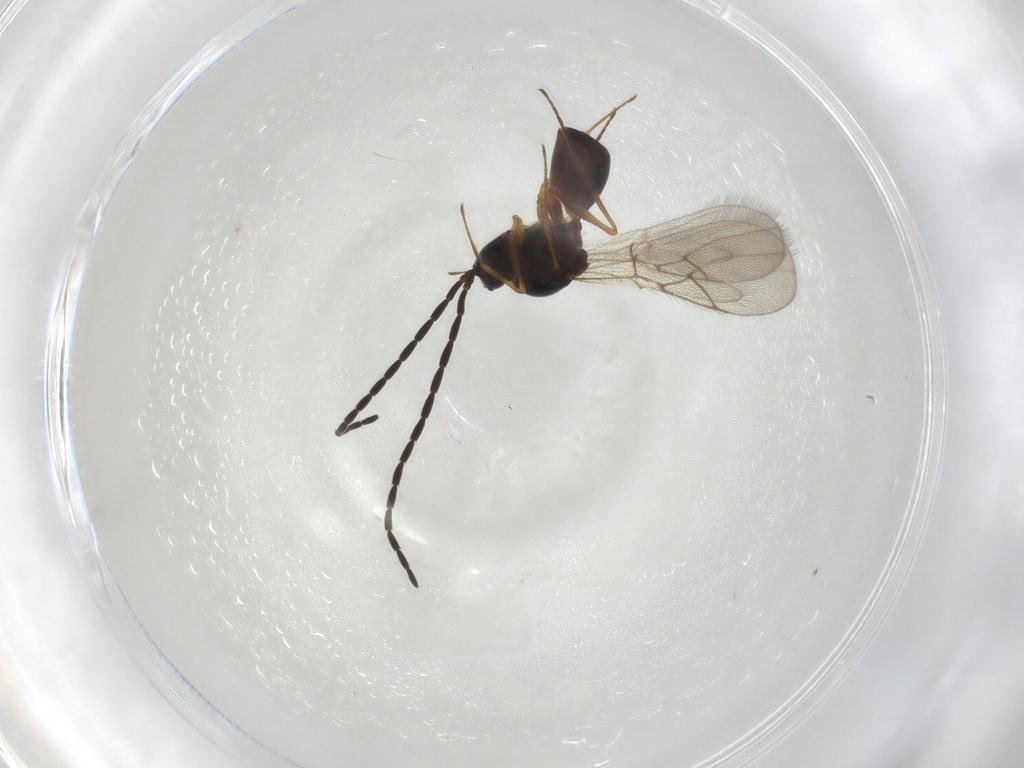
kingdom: Animalia
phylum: Arthropoda
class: Insecta
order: Hymenoptera
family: Figitidae
